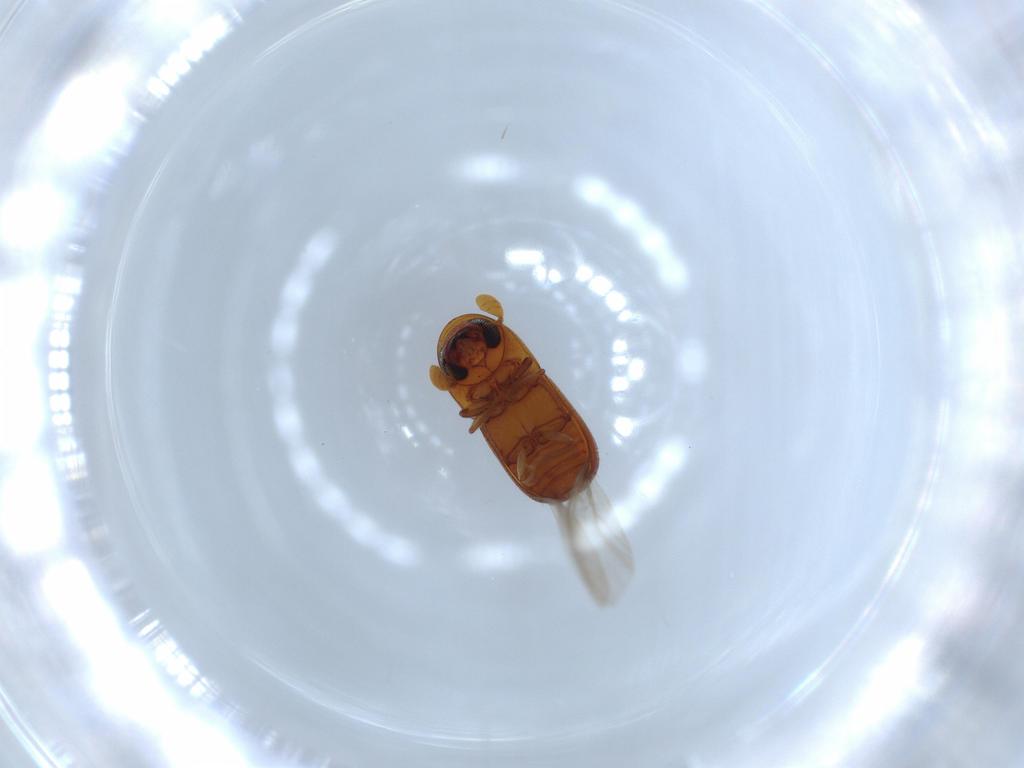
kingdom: Animalia
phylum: Arthropoda
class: Insecta
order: Coleoptera
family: Curculionidae
